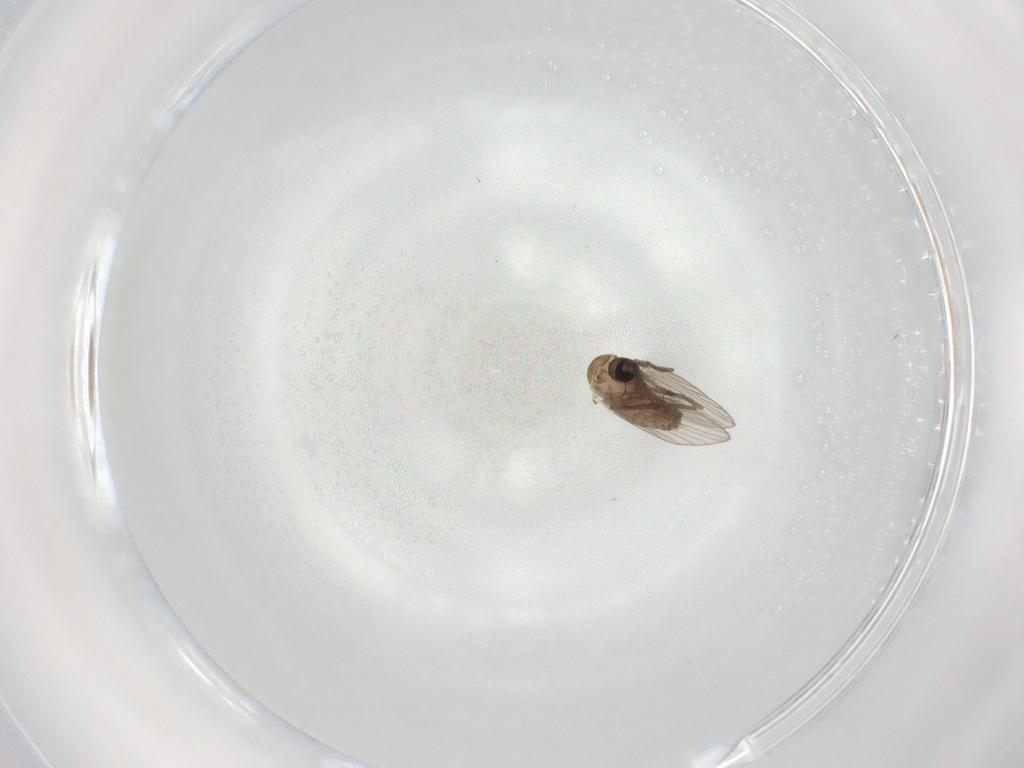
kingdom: Animalia
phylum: Arthropoda
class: Insecta
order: Diptera
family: Psychodidae
